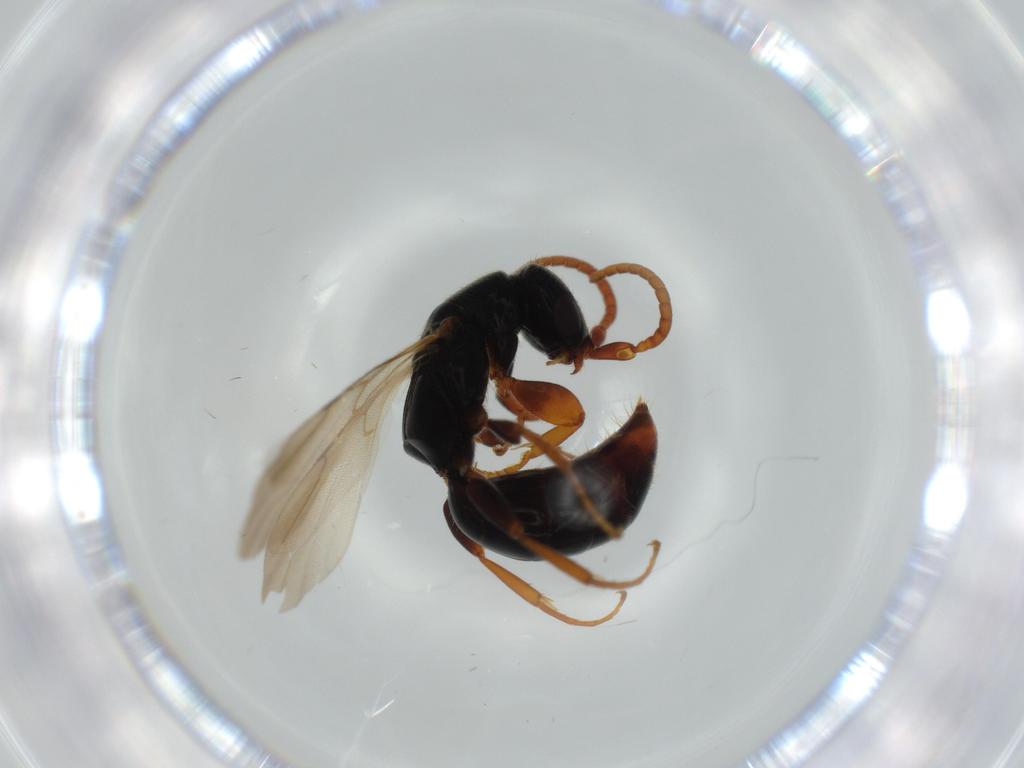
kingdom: Animalia
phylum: Arthropoda
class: Insecta
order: Hymenoptera
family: Bethylidae
